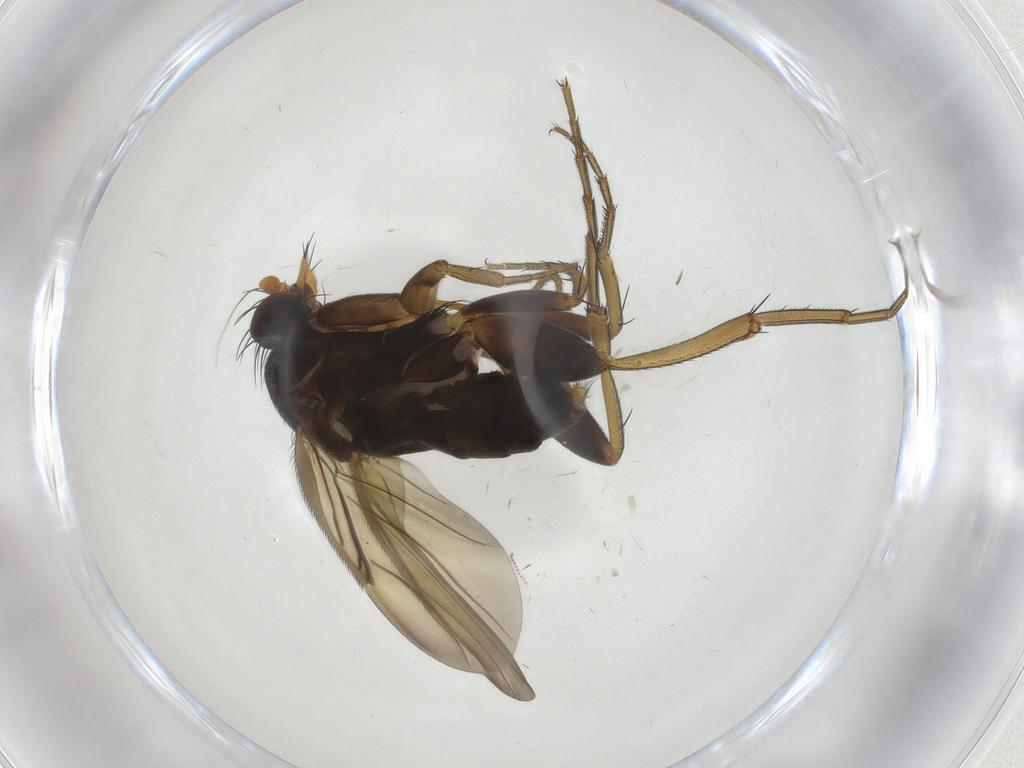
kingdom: Animalia
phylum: Arthropoda
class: Insecta
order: Diptera
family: Phoridae
